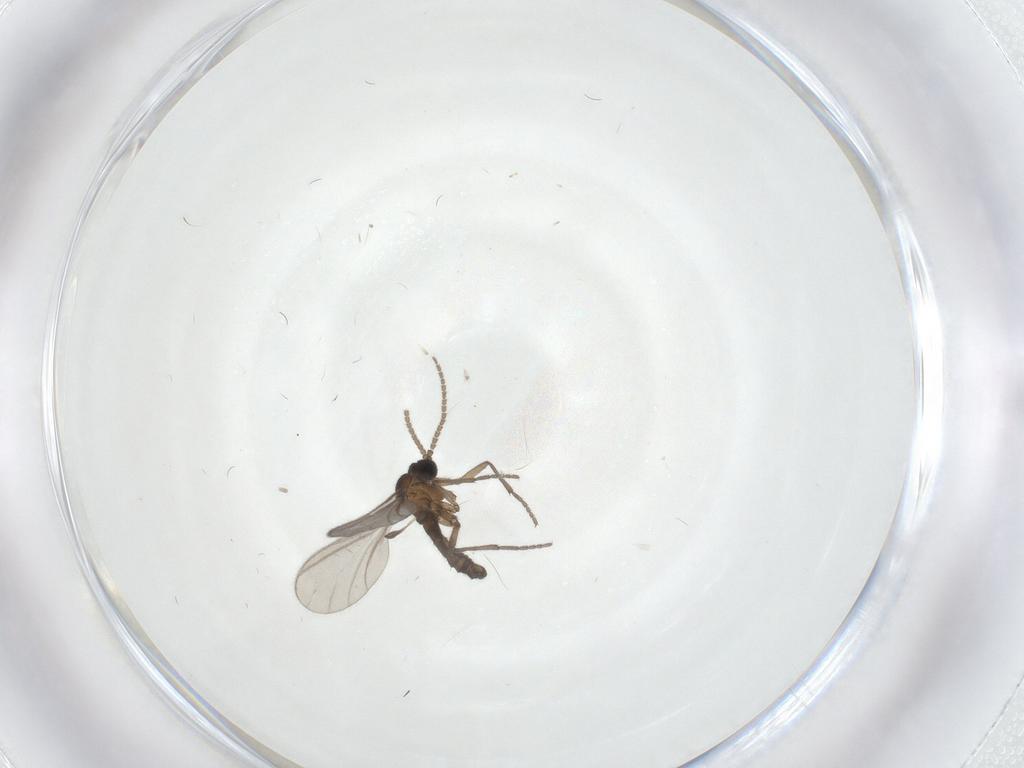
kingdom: Animalia
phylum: Arthropoda
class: Insecta
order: Diptera
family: Sciaridae
